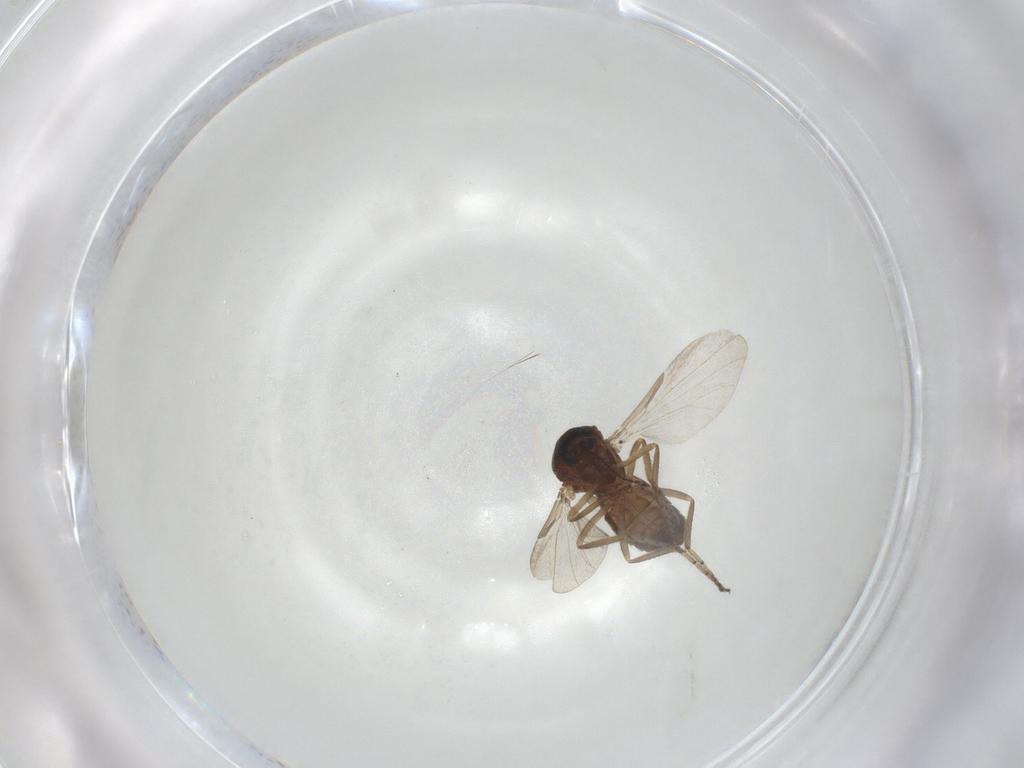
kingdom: Animalia
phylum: Arthropoda
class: Insecta
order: Diptera
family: Ceratopogonidae
